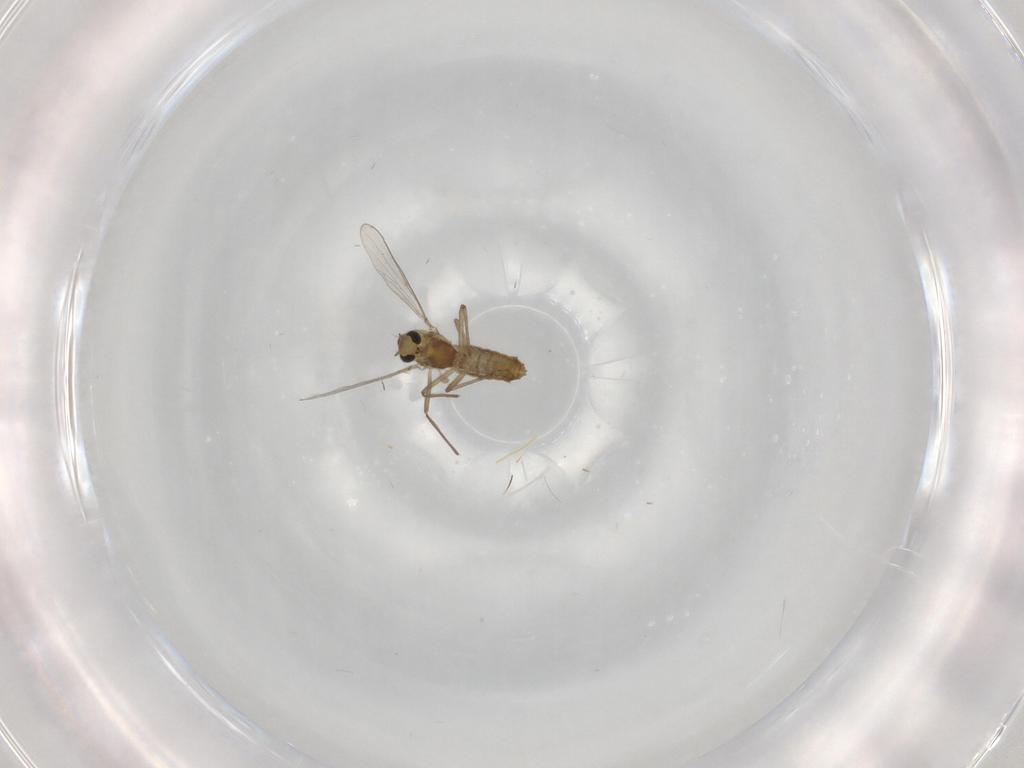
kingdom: Animalia
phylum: Arthropoda
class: Insecta
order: Diptera
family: Chironomidae
